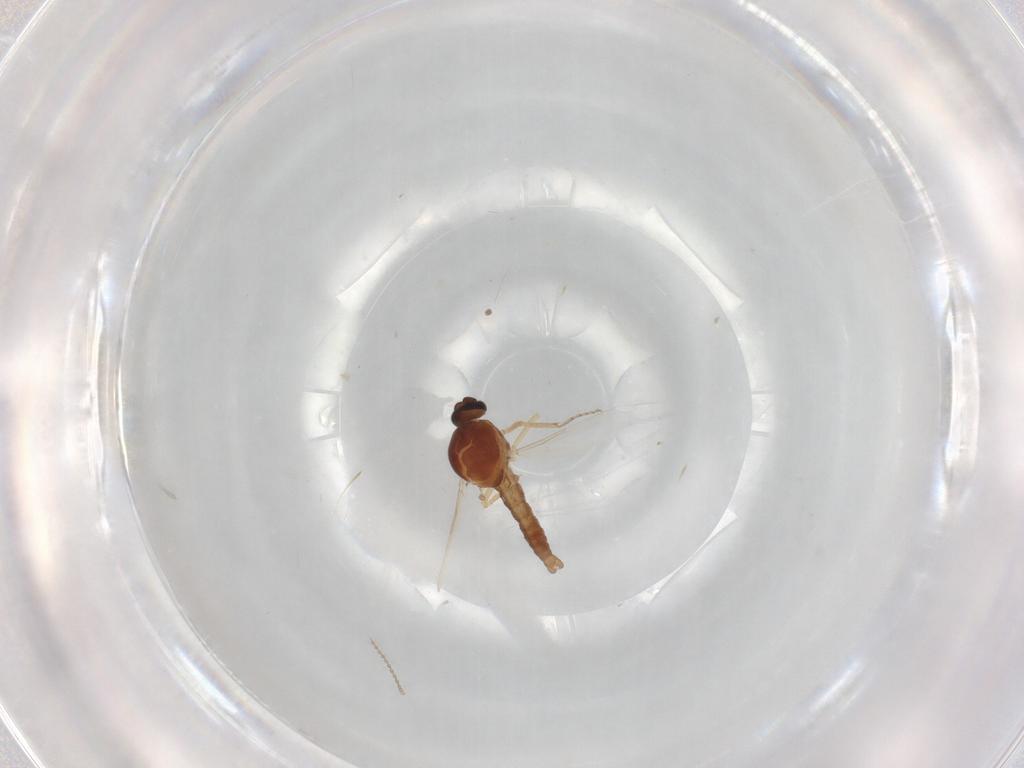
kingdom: Animalia
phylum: Arthropoda
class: Insecta
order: Diptera
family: Ceratopogonidae
